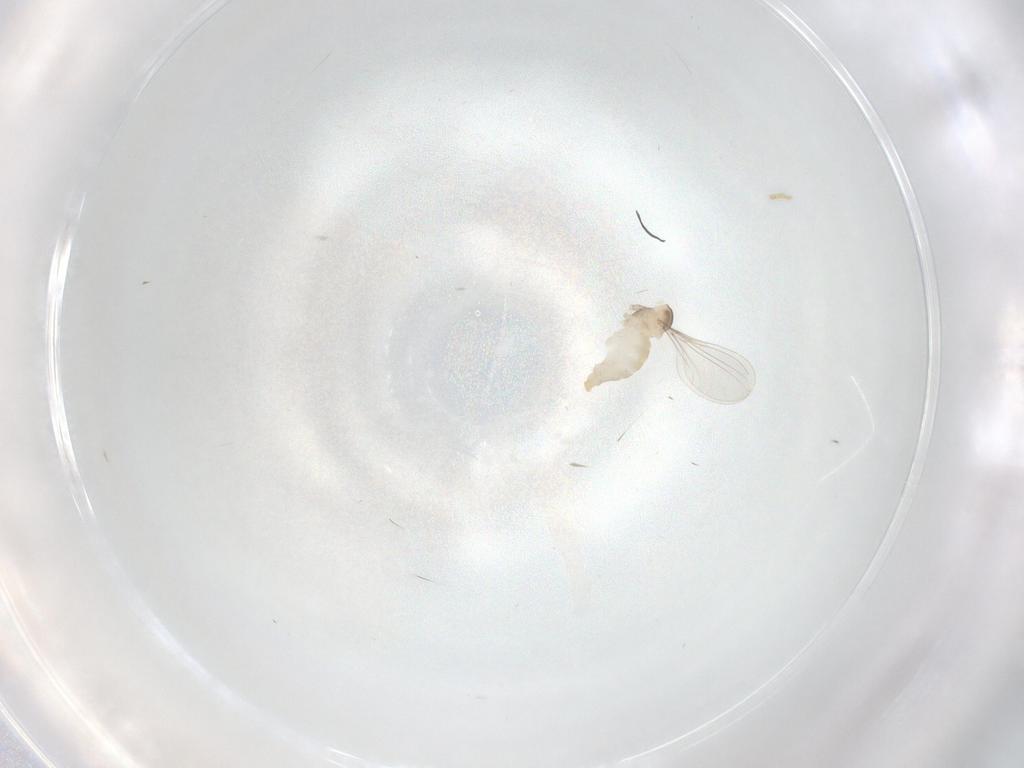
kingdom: Animalia
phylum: Arthropoda
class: Insecta
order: Diptera
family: Cecidomyiidae
